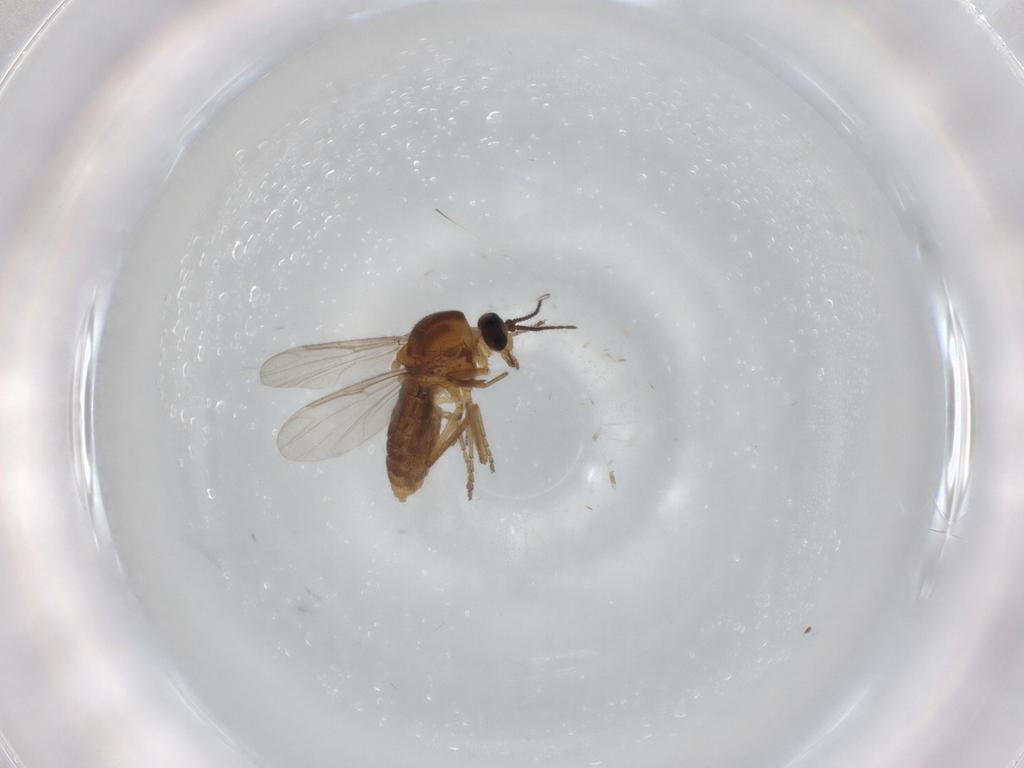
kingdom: Animalia
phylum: Arthropoda
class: Insecta
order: Diptera
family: Ceratopogonidae
